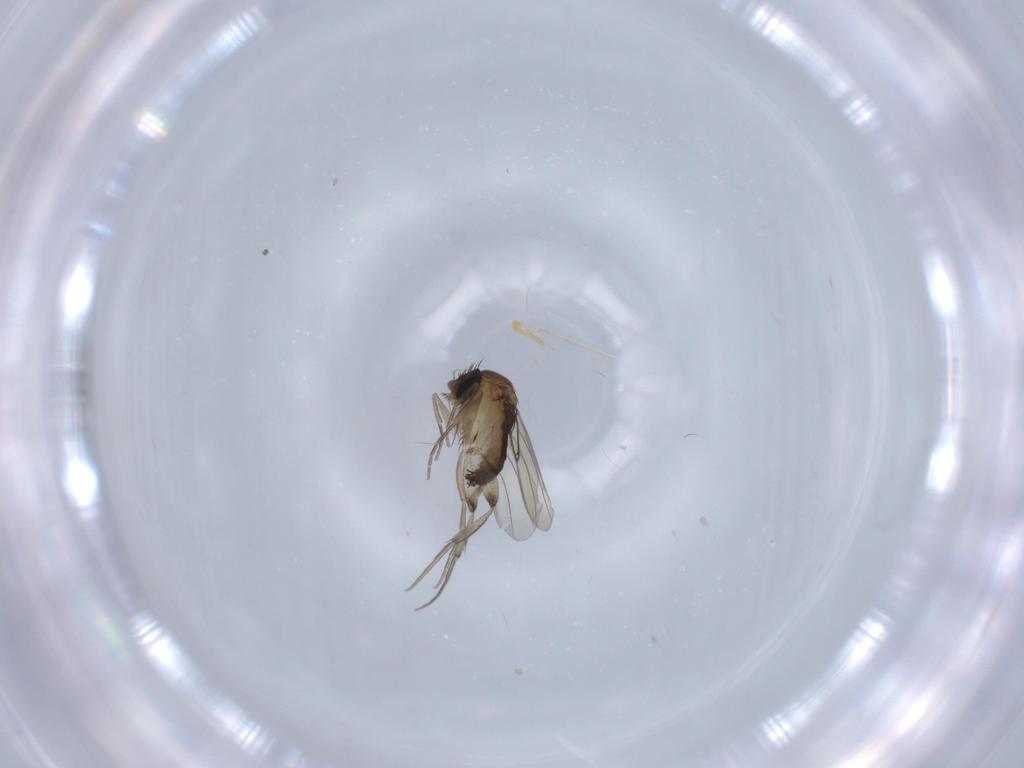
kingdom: Animalia
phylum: Arthropoda
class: Insecta
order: Diptera
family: Phoridae
